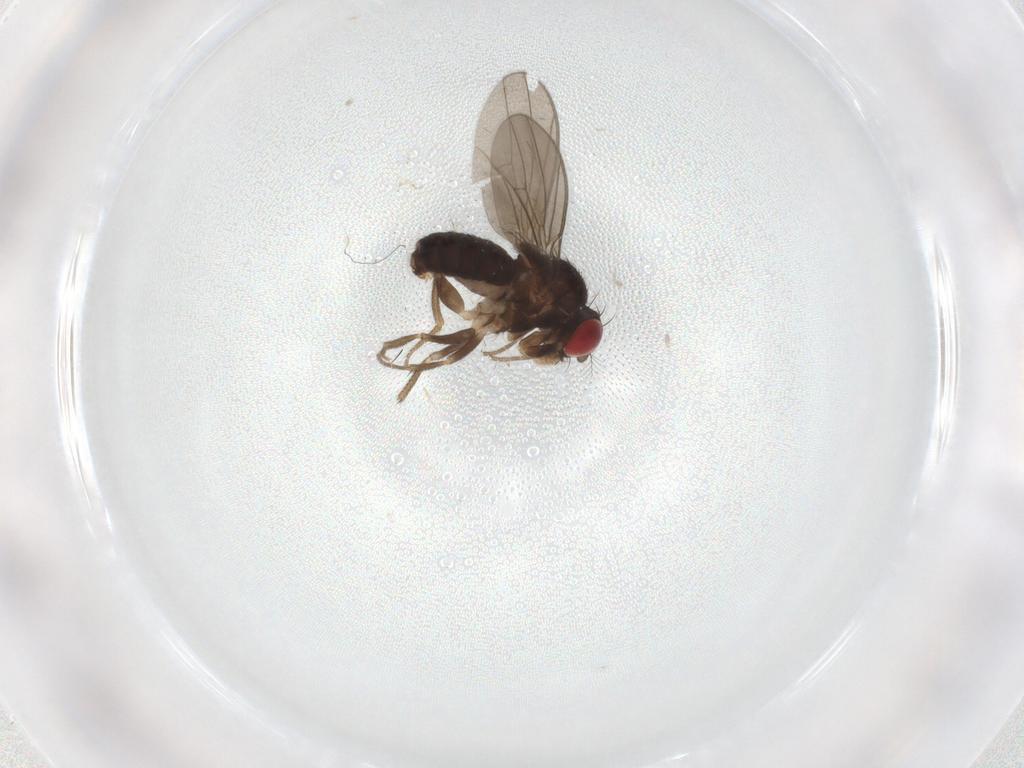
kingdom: Animalia
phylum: Arthropoda
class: Insecta
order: Diptera
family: Drosophilidae
